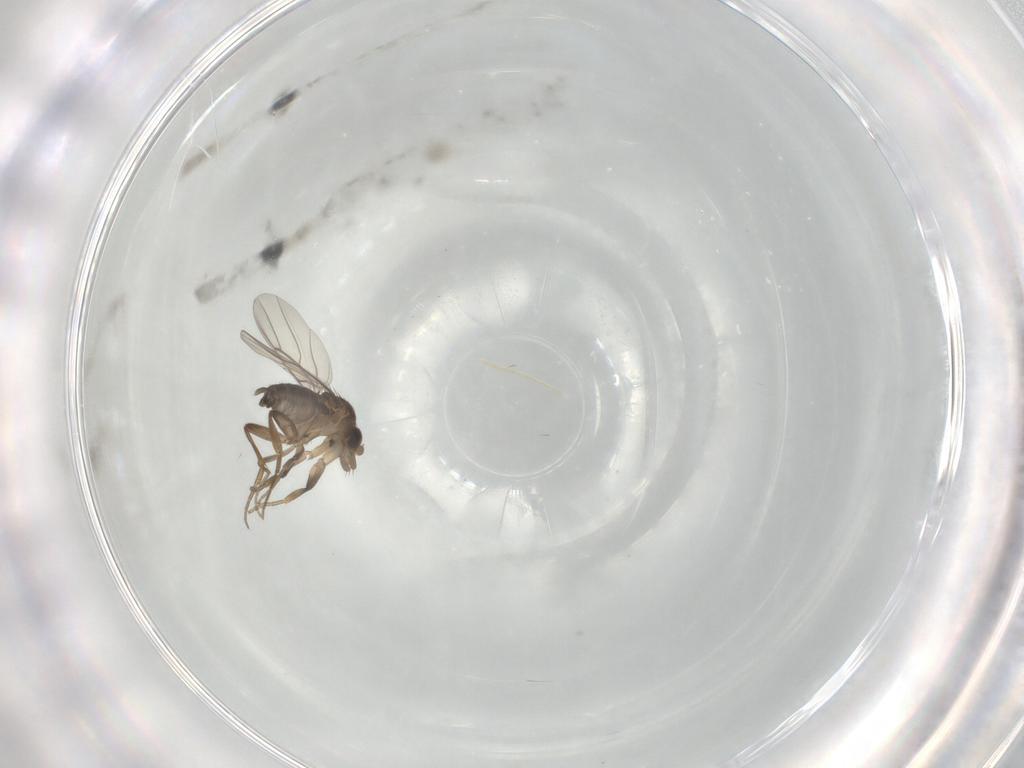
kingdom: Animalia
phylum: Arthropoda
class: Insecta
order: Diptera
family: Phoridae
